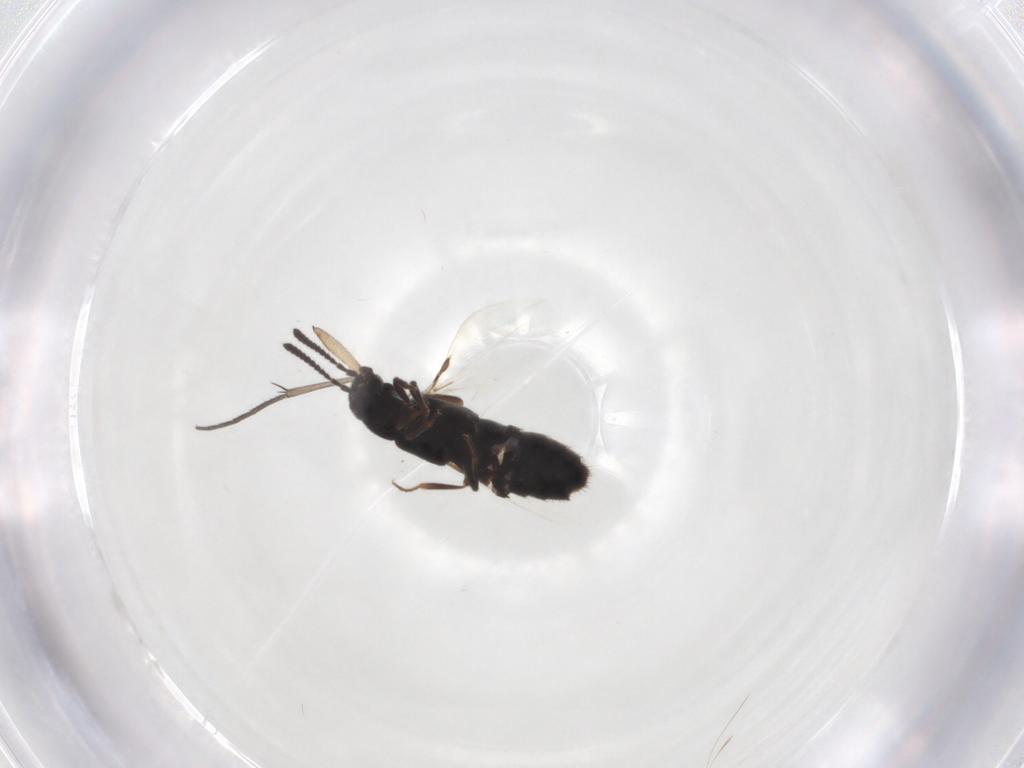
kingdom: Animalia
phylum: Arthropoda
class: Insecta
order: Coleoptera
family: Staphylinidae
